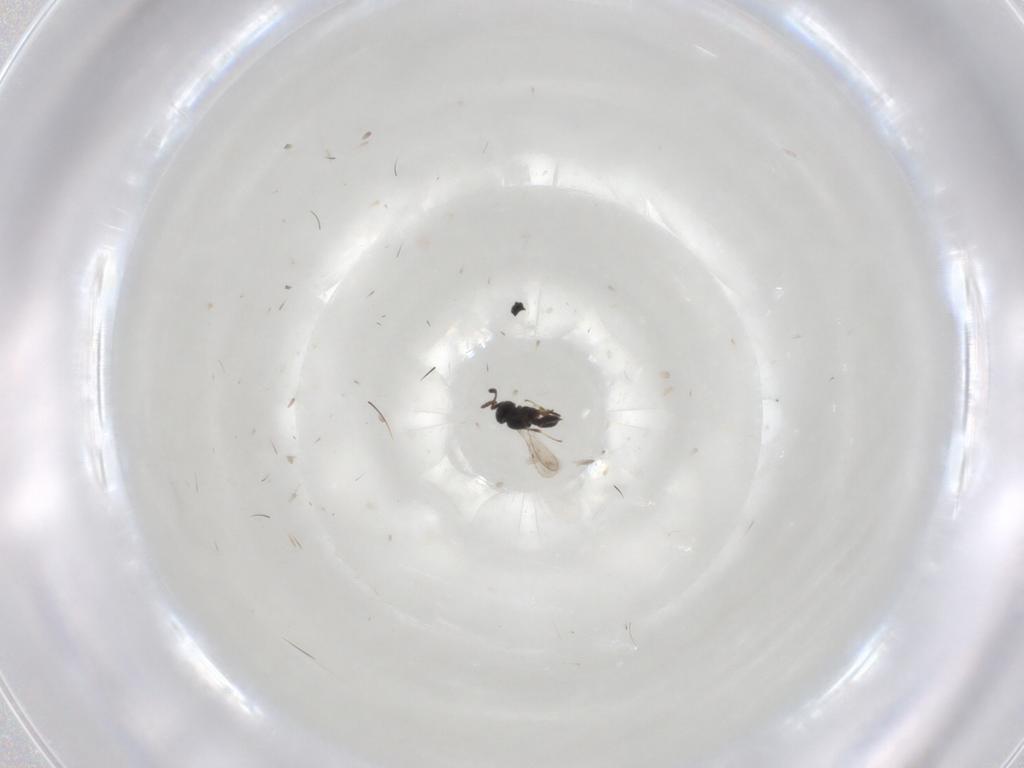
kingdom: Animalia
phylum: Arthropoda
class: Insecta
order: Hymenoptera
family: Scelionidae
